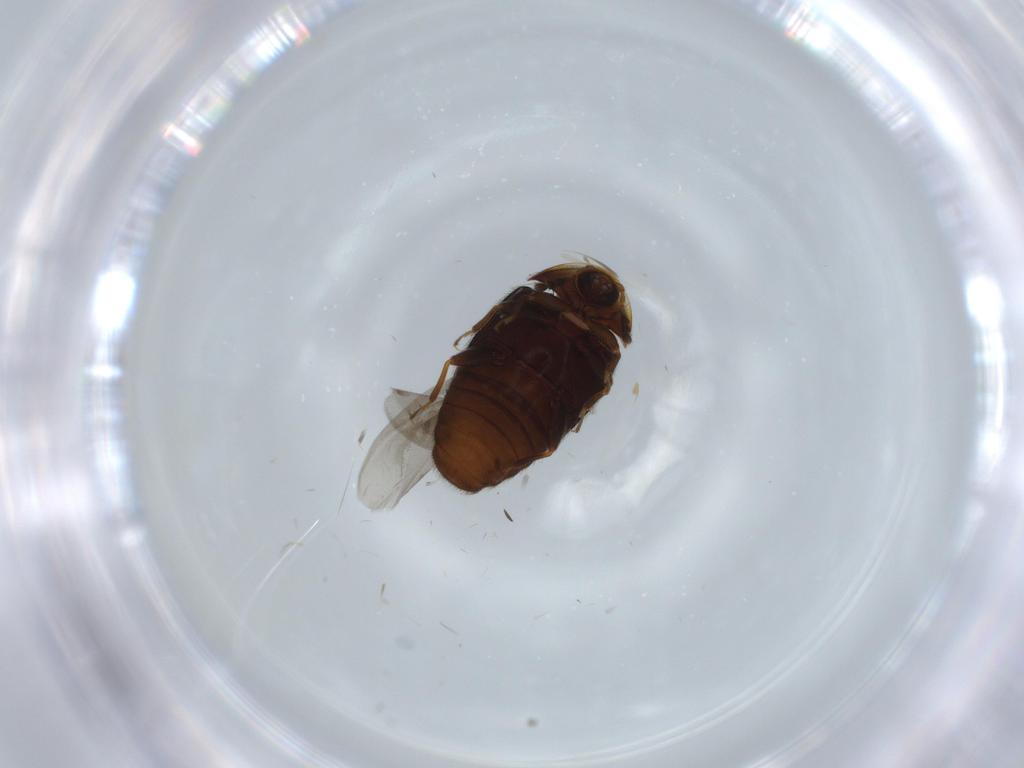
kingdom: Animalia
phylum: Arthropoda
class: Insecta
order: Coleoptera
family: Corylophidae
